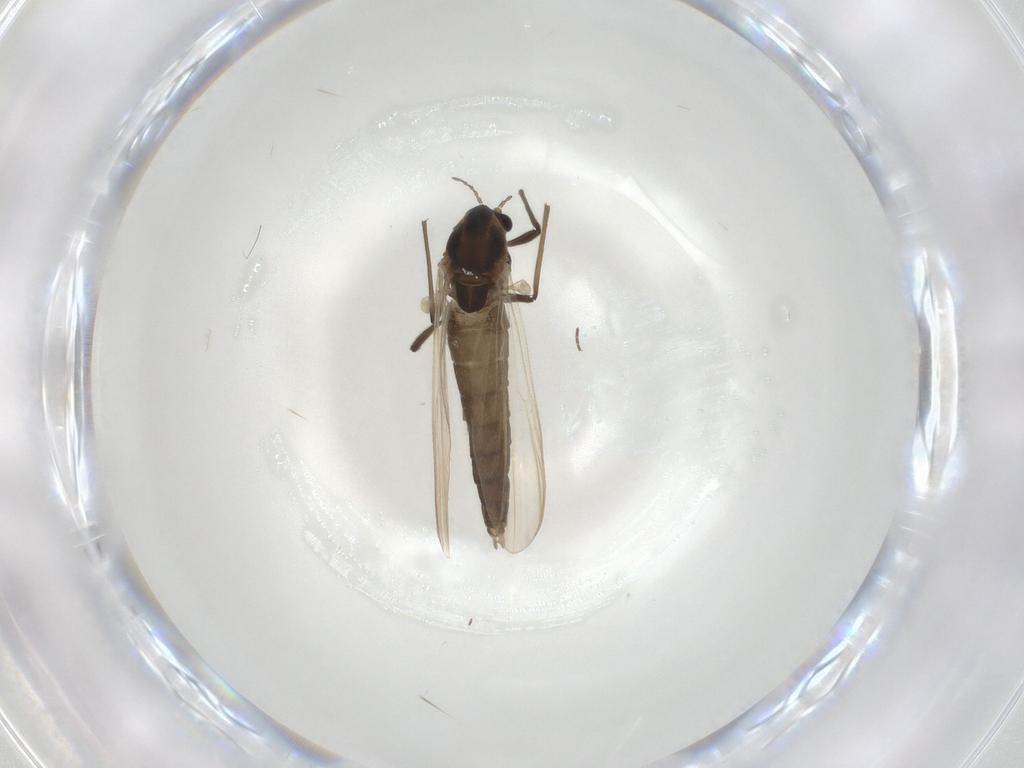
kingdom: Animalia
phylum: Arthropoda
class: Insecta
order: Diptera
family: Chironomidae
